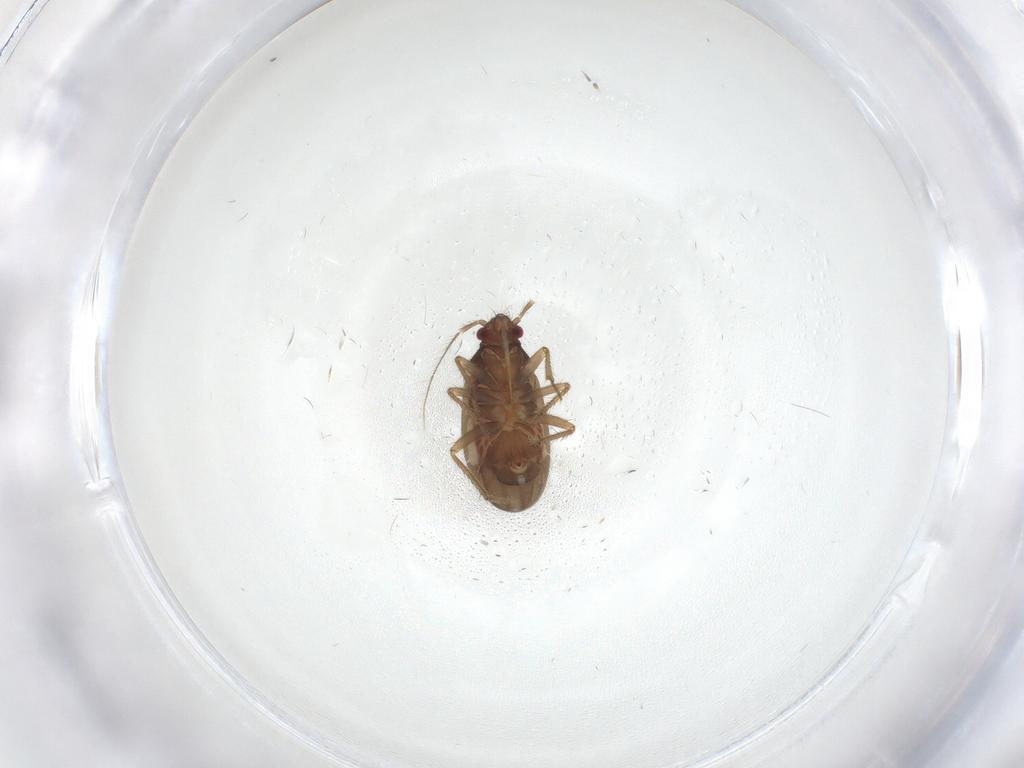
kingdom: Animalia
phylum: Arthropoda
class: Insecta
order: Hemiptera
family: Ceratocombidae
